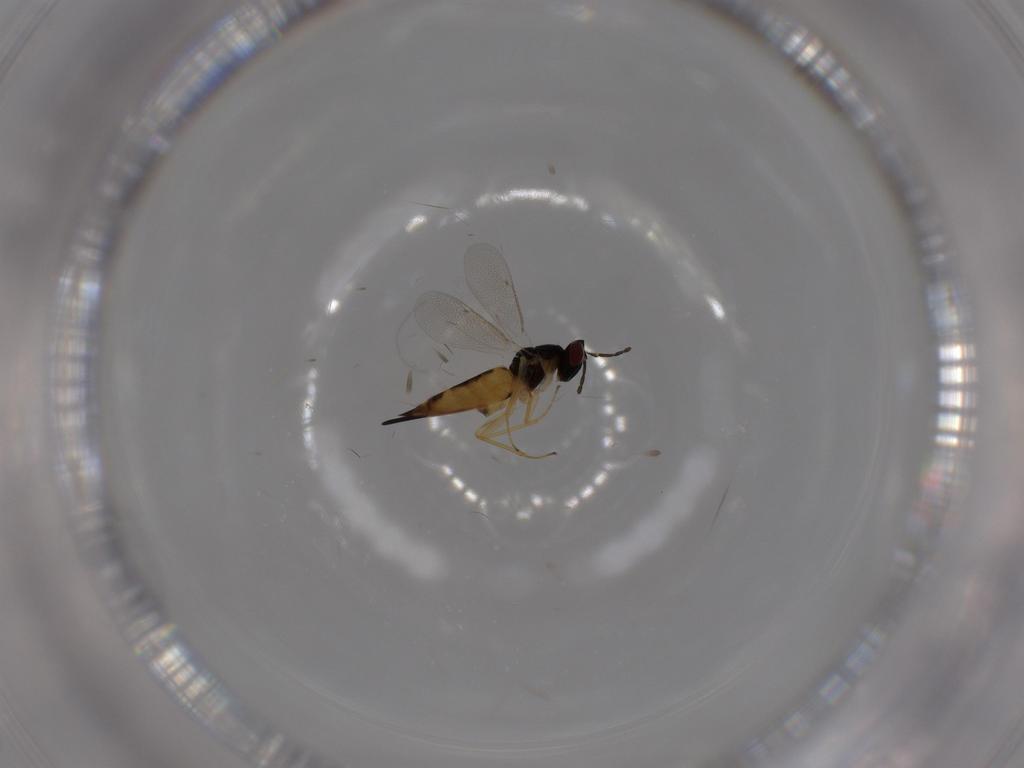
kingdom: Animalia
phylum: Arthropoda
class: Insecta
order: Hymenoptera
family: Eulophidae
